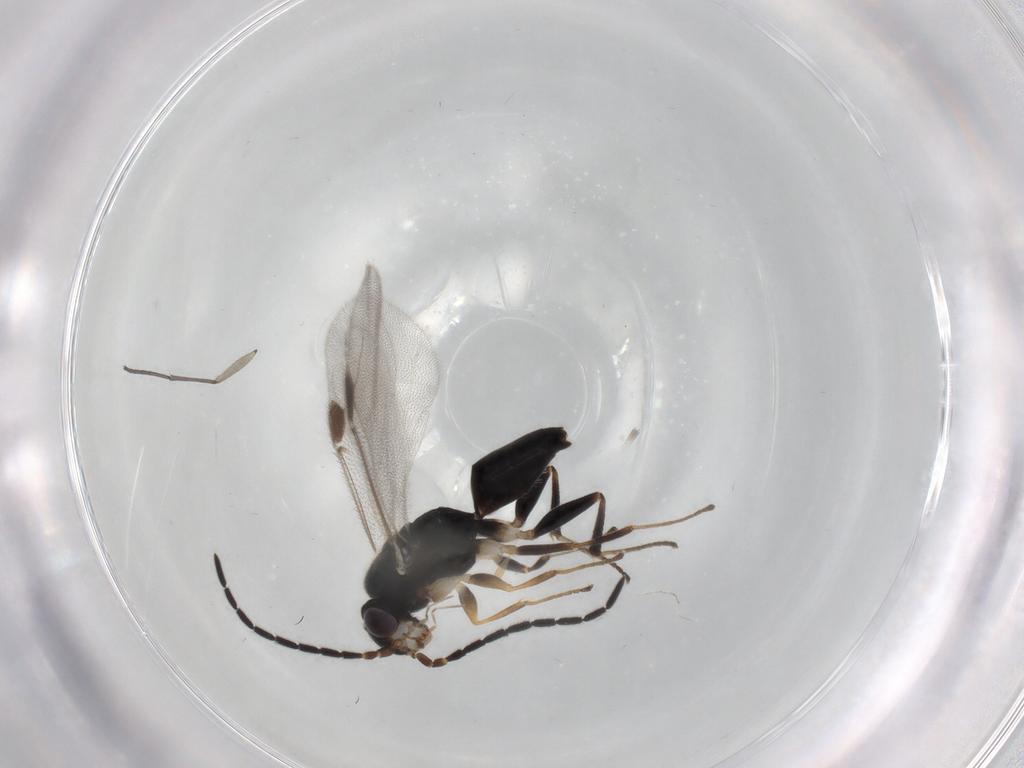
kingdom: Animalia
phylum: Arthropoda
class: Insecta
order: Hymenoptera
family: Dryinidae
